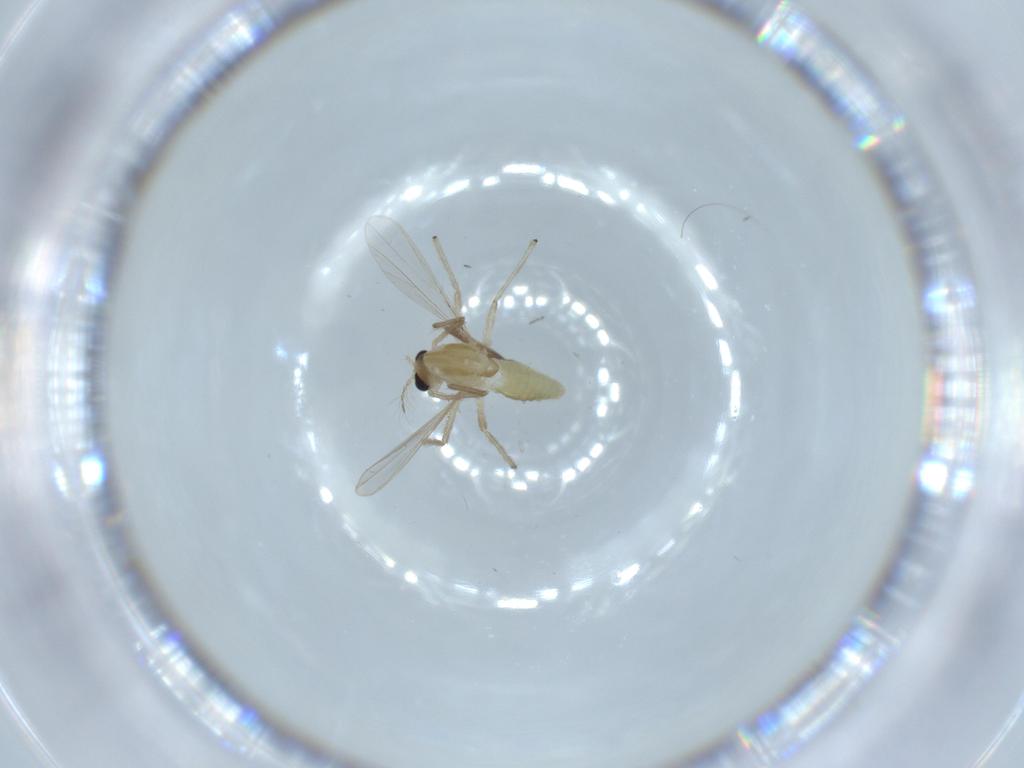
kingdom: Animalia
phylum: Arthropoda
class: Insecta
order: Diptera
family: Chironomidae
